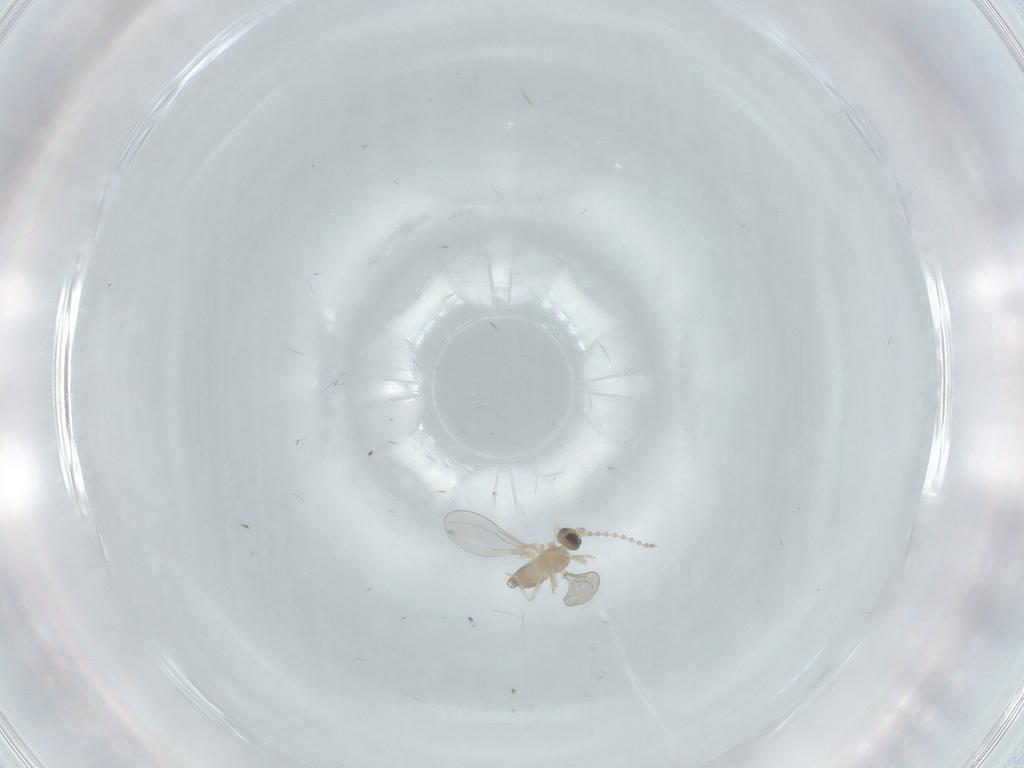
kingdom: Animalia
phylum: Arthropoda
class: Insecta
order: Diptera
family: Cecidomyiidae
